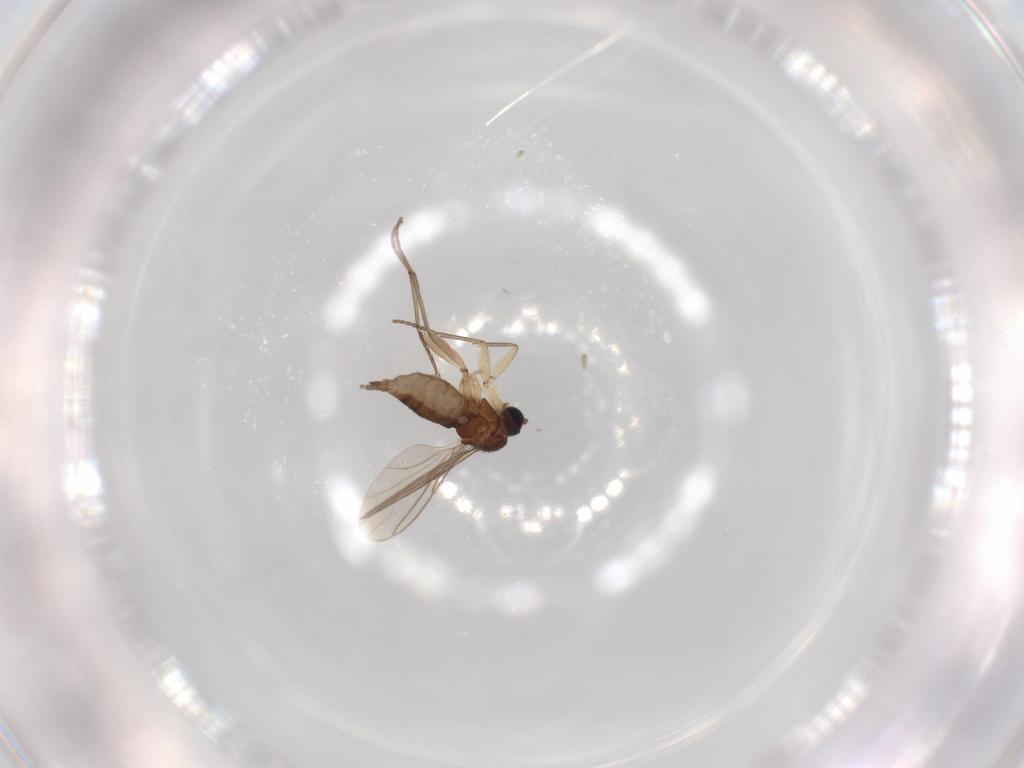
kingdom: Animalia
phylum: Arthropoda
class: Insecta
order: Diptera
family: Sciaridae
